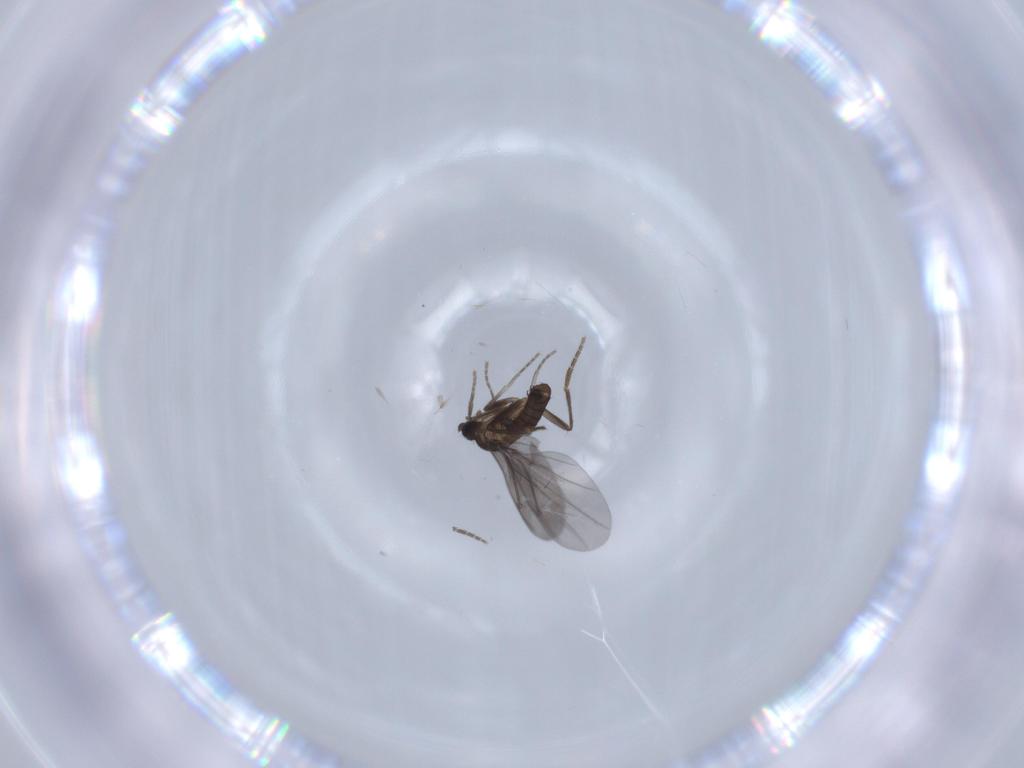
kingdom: Animalia
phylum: Arthropoda
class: Insecta
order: Diptera
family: Phoridae
